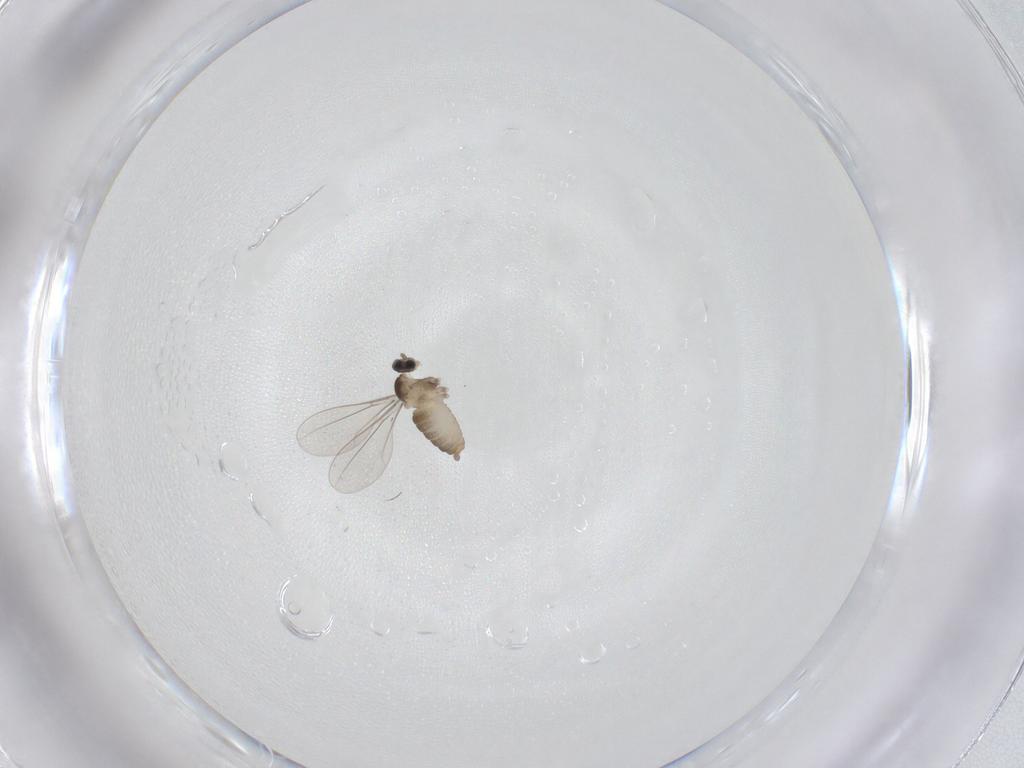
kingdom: Animalia
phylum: Arthropoda
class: Insecta
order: Diptera
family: Cecidomyiidae
